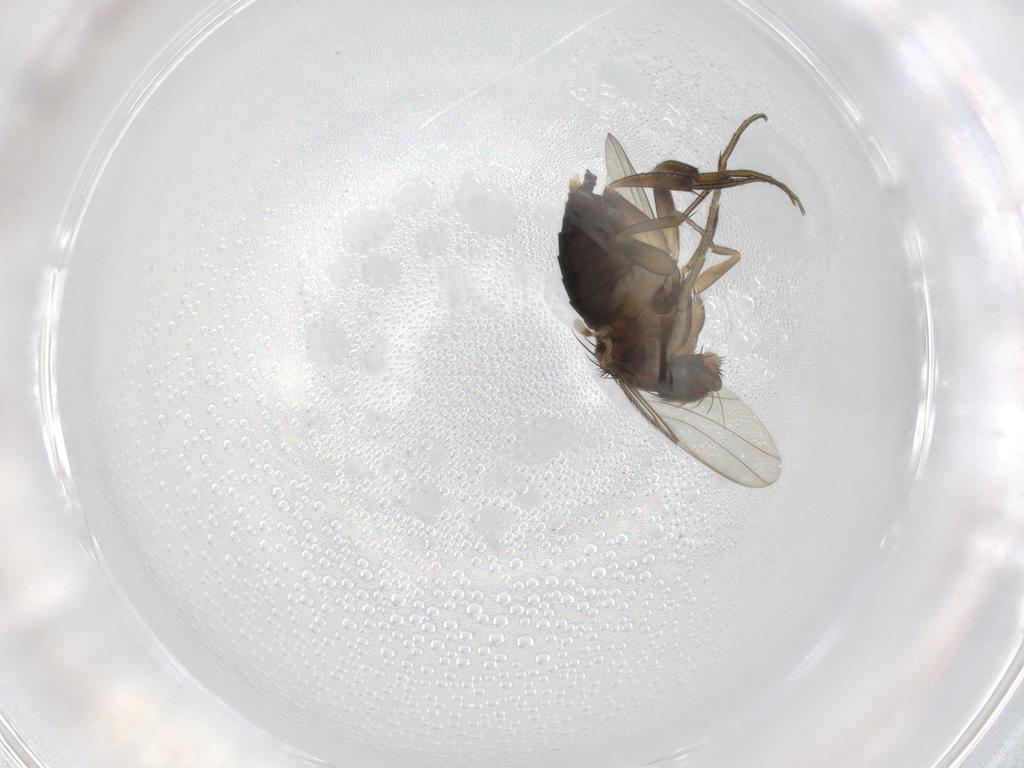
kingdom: Animalia
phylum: Arthropoda
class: Insecta
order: Diptera
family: Phoridae
